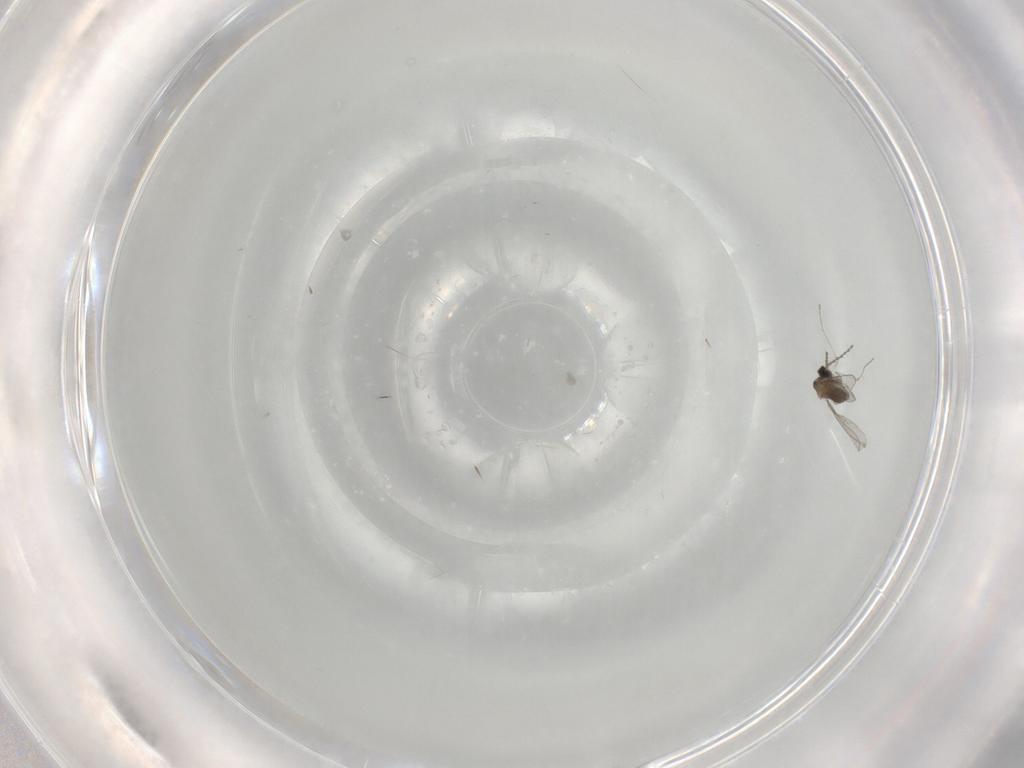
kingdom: Animalia
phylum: Arthropoda
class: Insecta
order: Diptera
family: Cecidomyiidae
